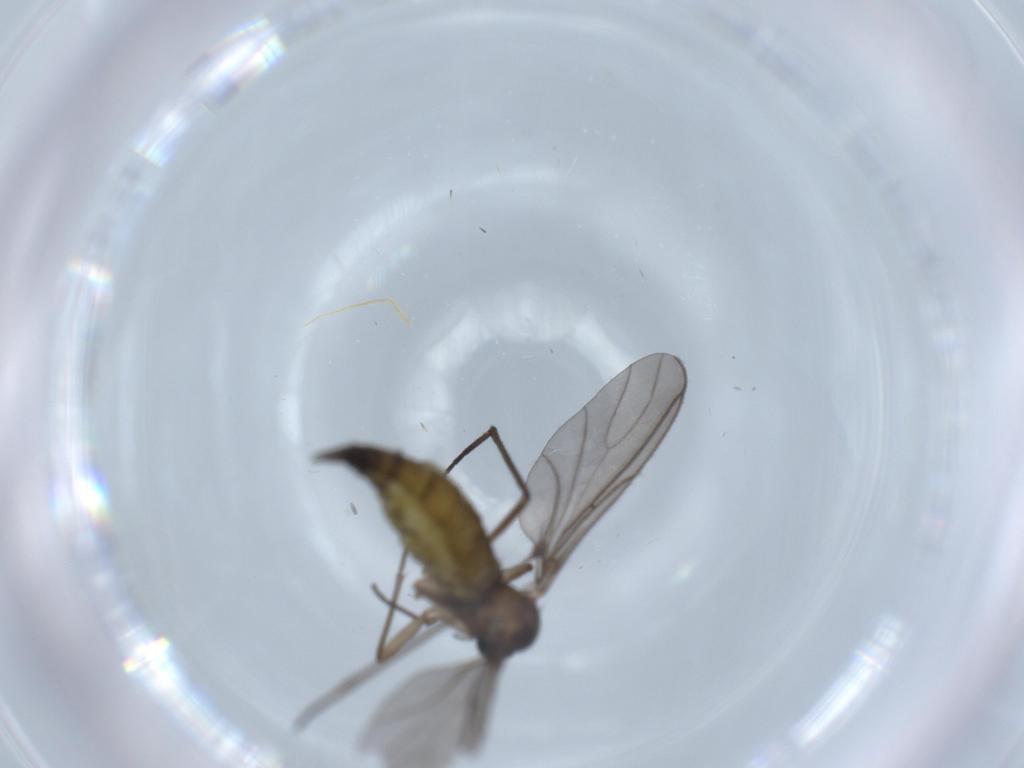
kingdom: Animalia
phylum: Arthropoda
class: Insecta
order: Diptera
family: Sciaridae
